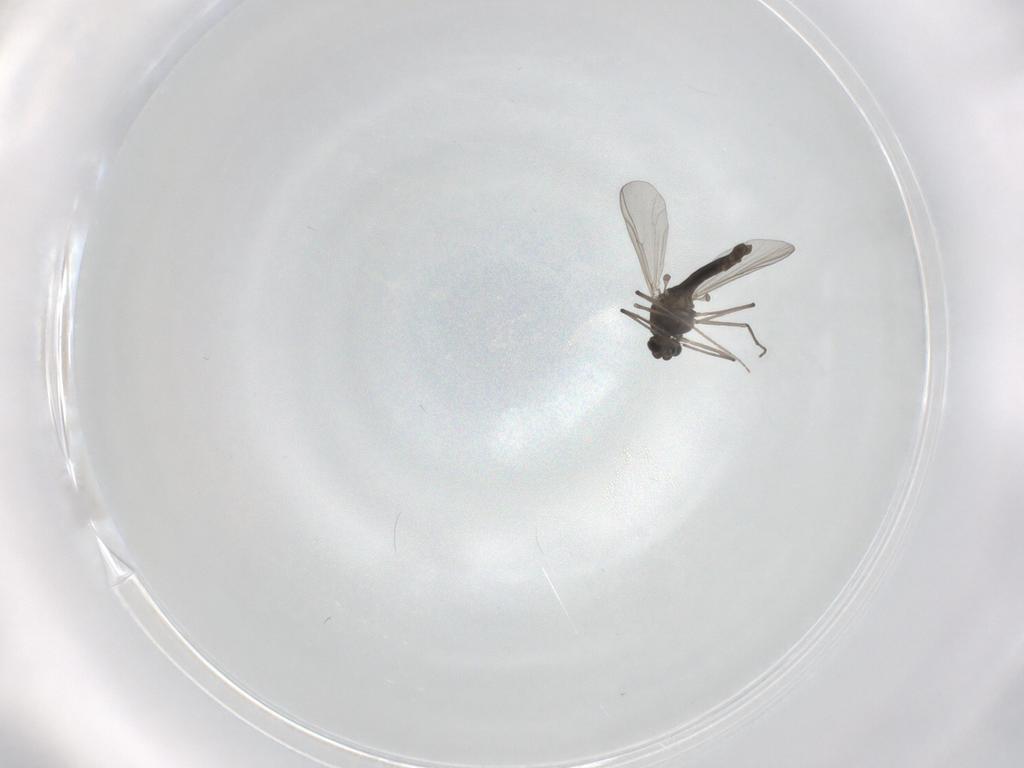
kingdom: Animalia
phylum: Arthropoda
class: Insecta
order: Diptera
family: Chironomidae
